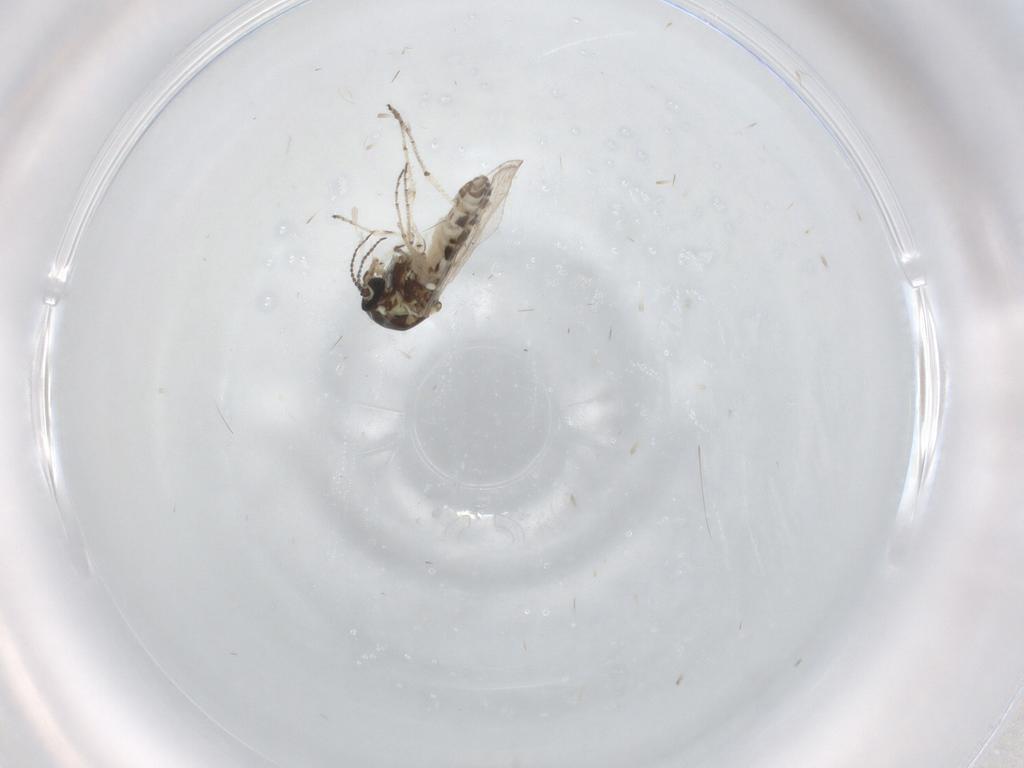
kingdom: Animalia
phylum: Arthropoda
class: Insecta
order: Diptera
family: Ceratopogonidae
